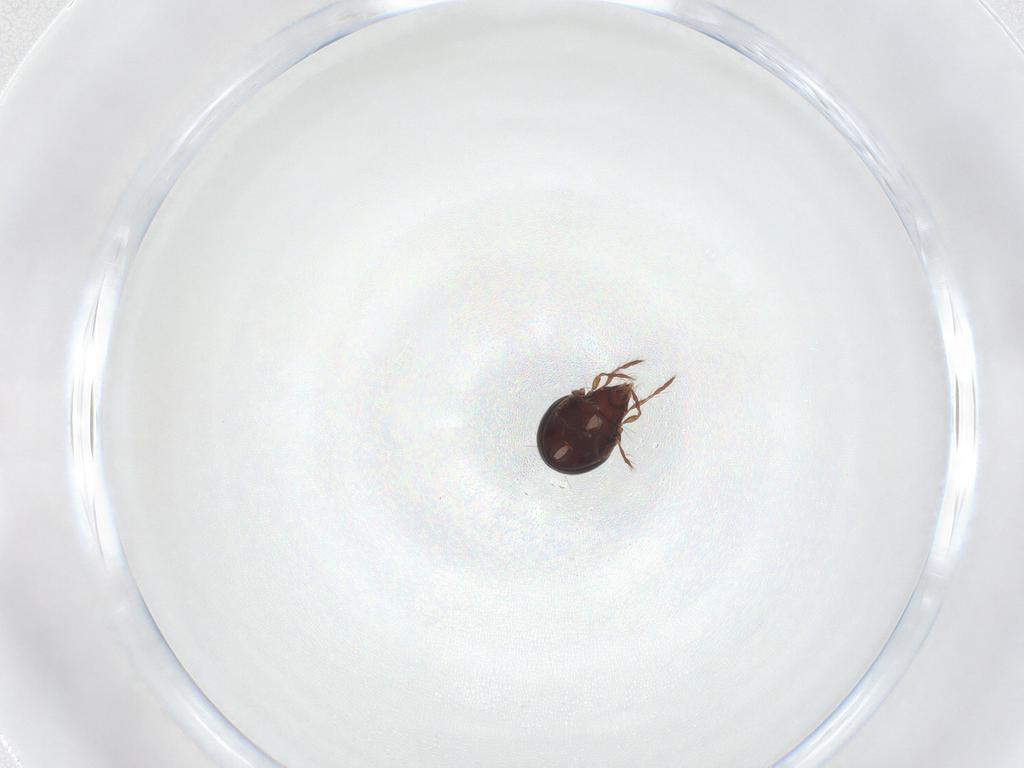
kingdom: Animalia
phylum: Arthropoda
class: Arachnida
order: Sarcoptiformes
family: Ceratoppiidae
